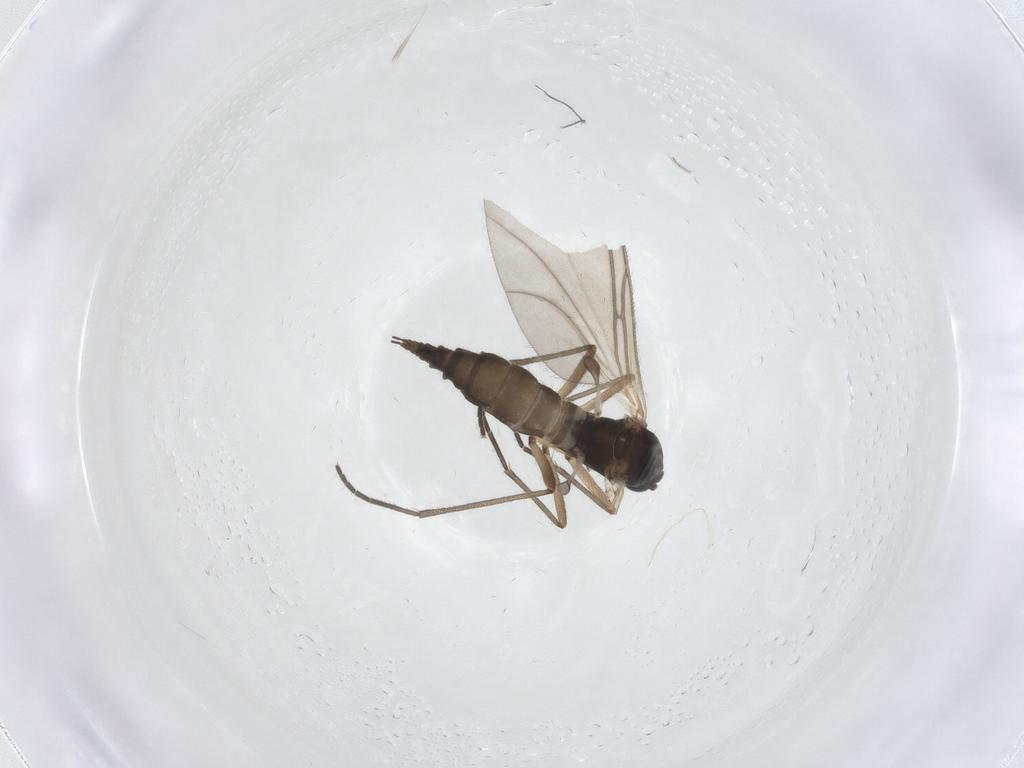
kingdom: Animalia
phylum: Arthropoda
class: Insecta
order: Diptera
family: Sciaridae
